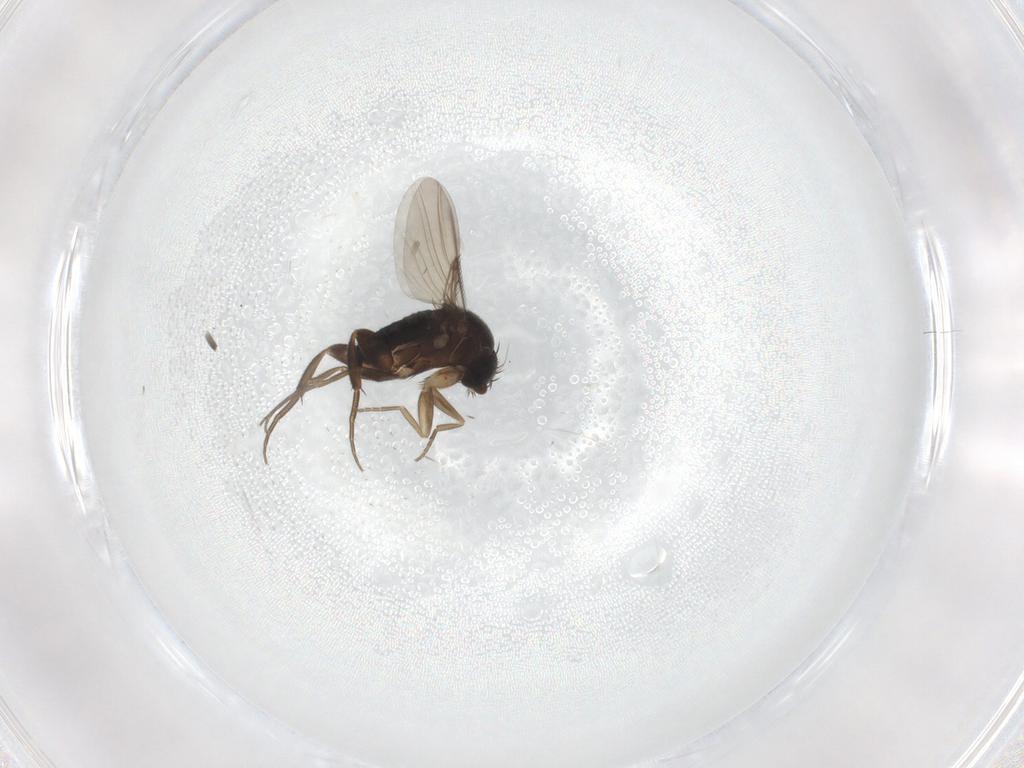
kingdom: Animalia
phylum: Arthropoda
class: Insecta
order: Diptera
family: Phoridae
